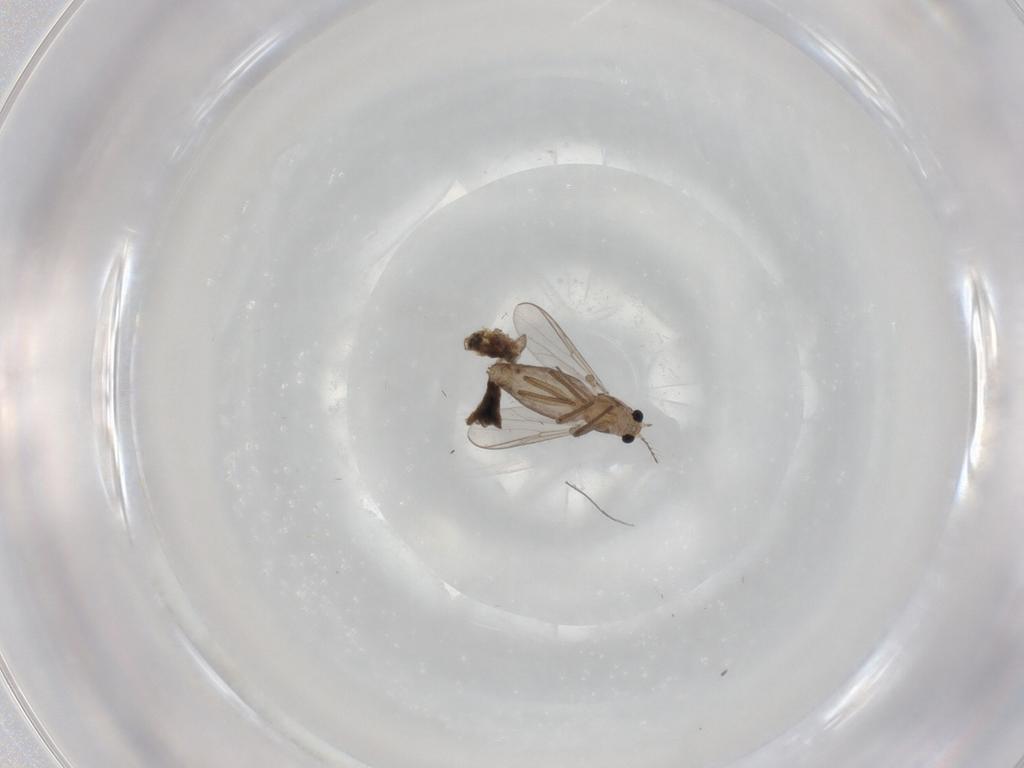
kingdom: Animalia
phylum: Arthropoda
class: Insecta
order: Diptera
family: Cecidomyiidae
